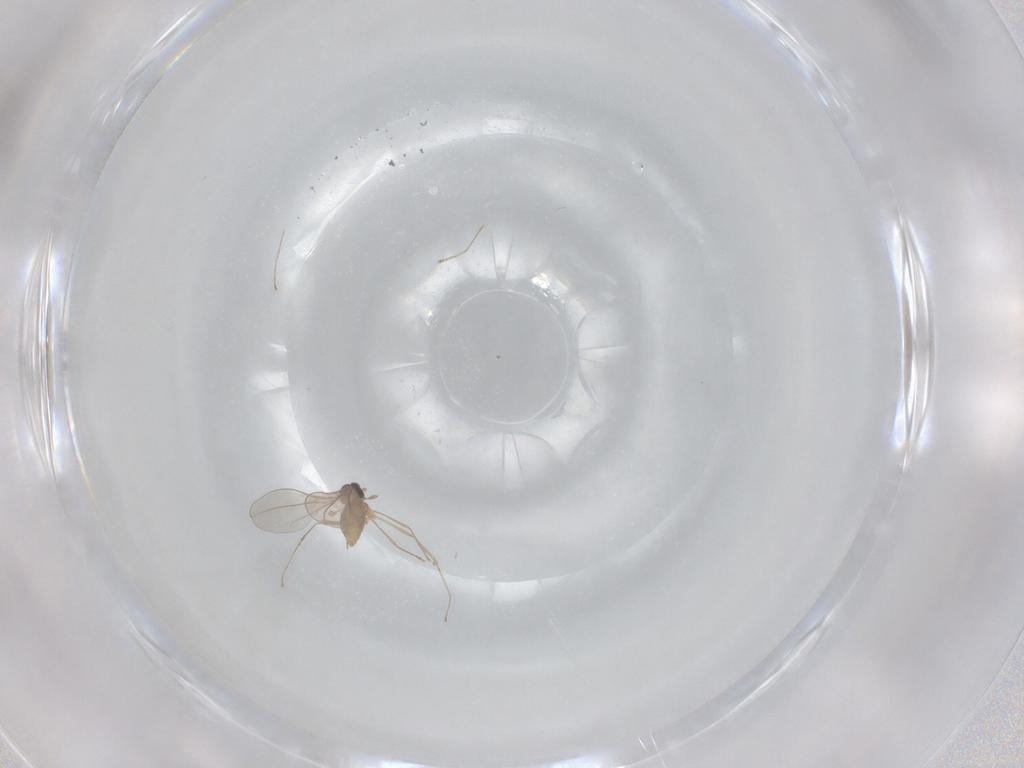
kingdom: Animalia
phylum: Arthropoda
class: Insecta
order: Diptera
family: Cecidomyiidae
